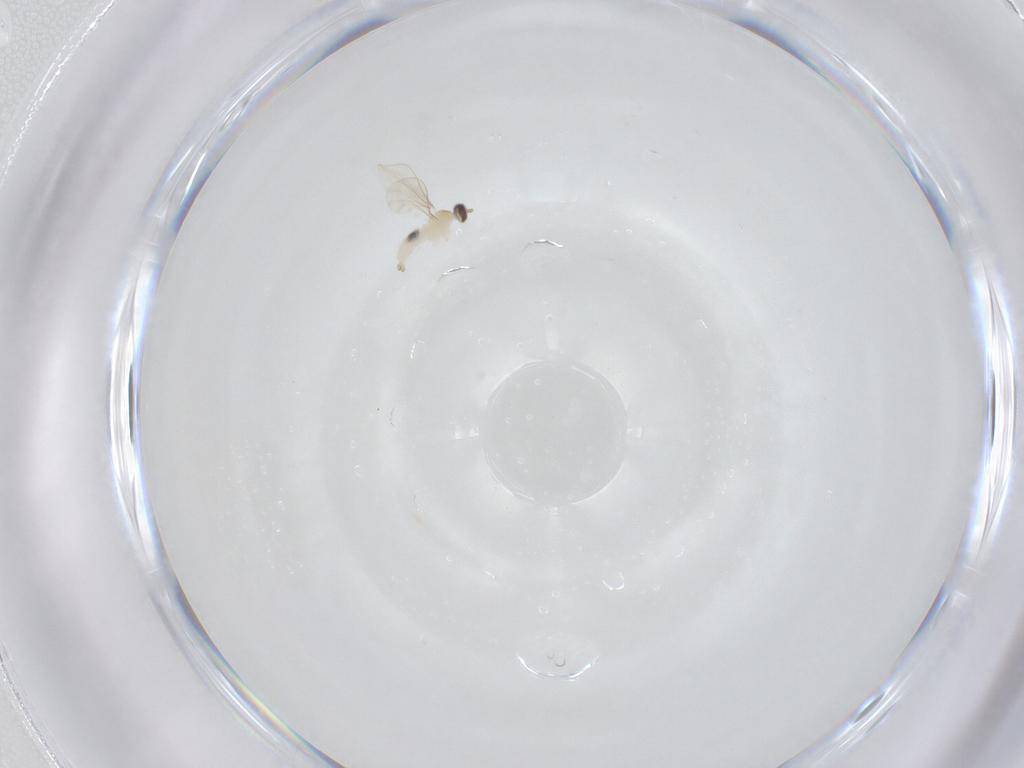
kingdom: Animalia
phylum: Arthropoda
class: Insecta
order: Diptera
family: Cecidomyiidae
